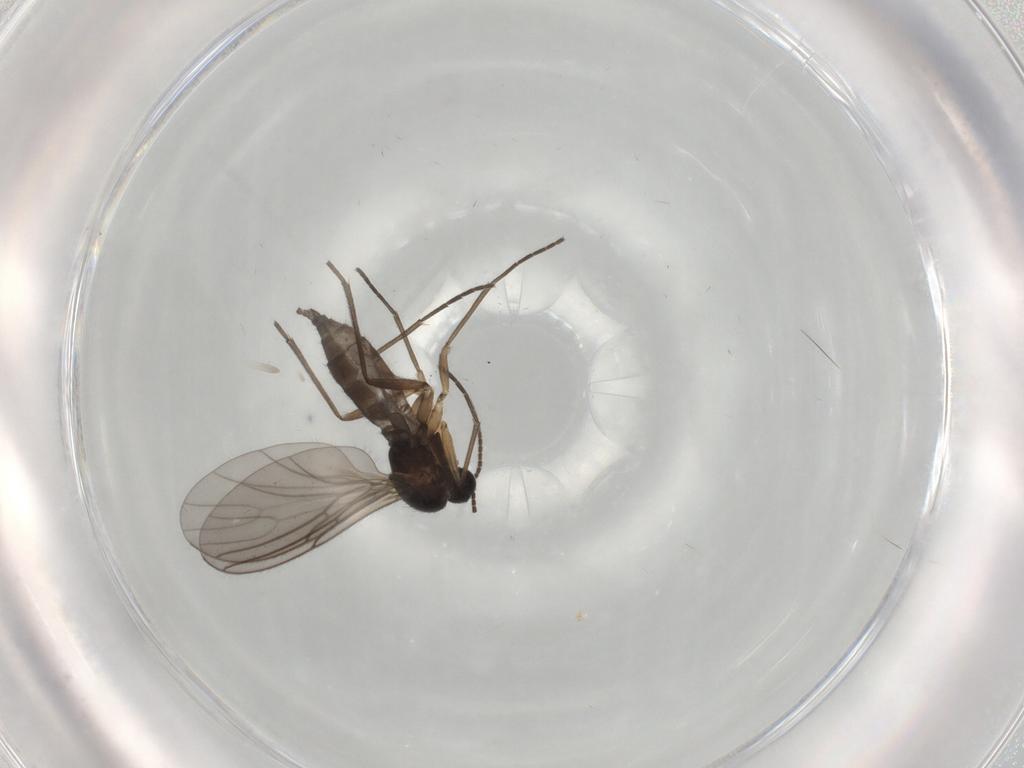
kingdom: Animalia
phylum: Arthropoda
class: Insecta
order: Diptera
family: Sciaridae
